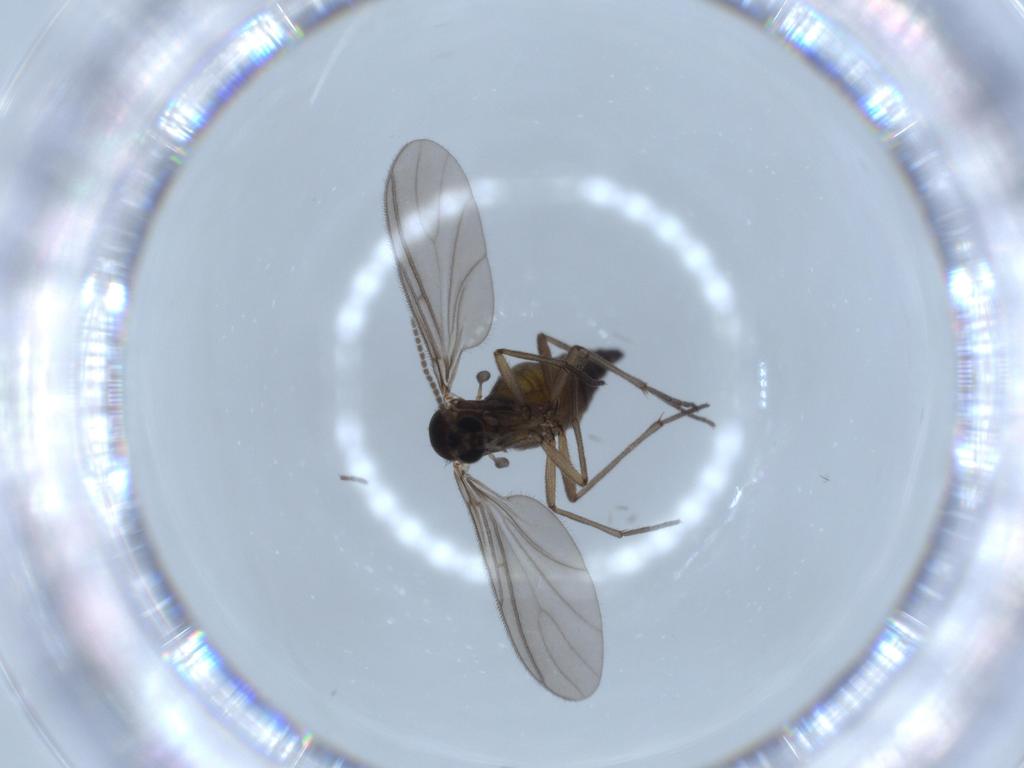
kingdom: Animalia
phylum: Arthropoda
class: Insecta
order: Diptera
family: Sciaridae
